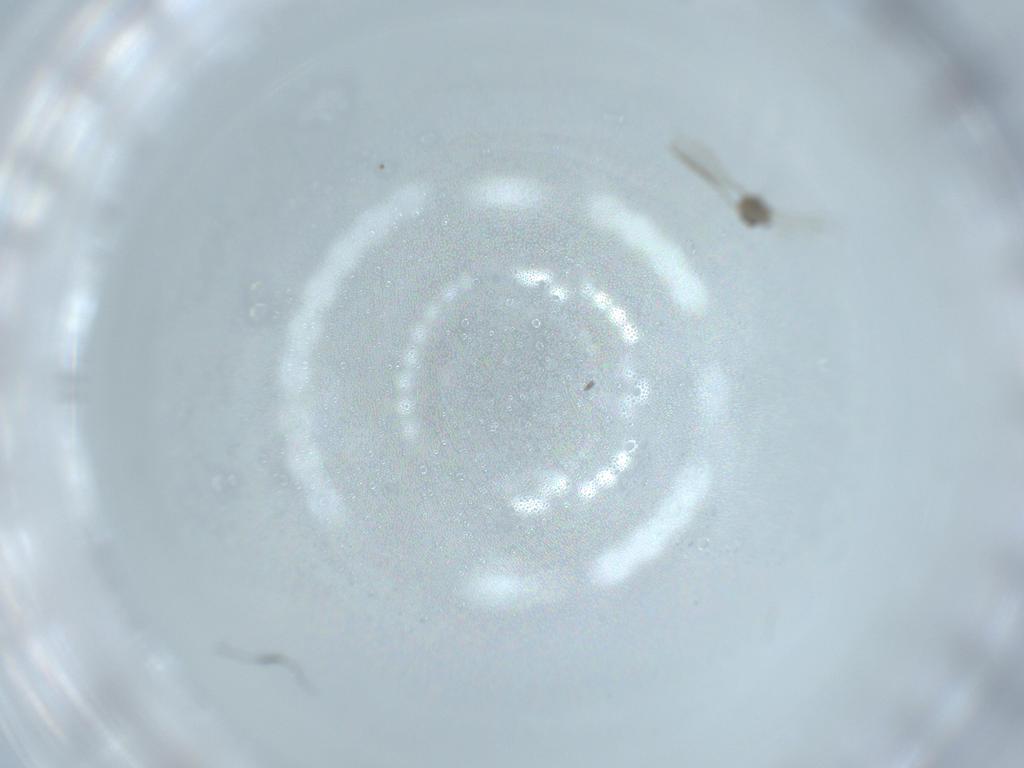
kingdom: Animalia
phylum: Arthropoda
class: Insecta
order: Diptera
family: Cecidomyiidae
